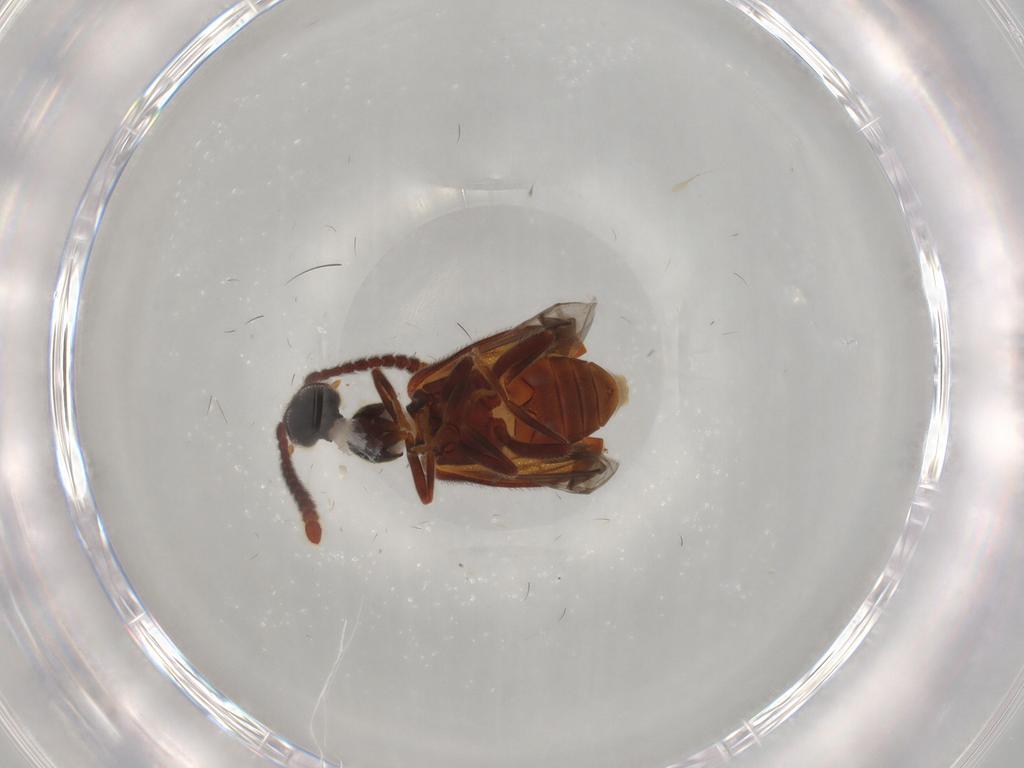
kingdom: Animalia
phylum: Arthropoda
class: Insecta
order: Coleoptera
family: Aderidae
